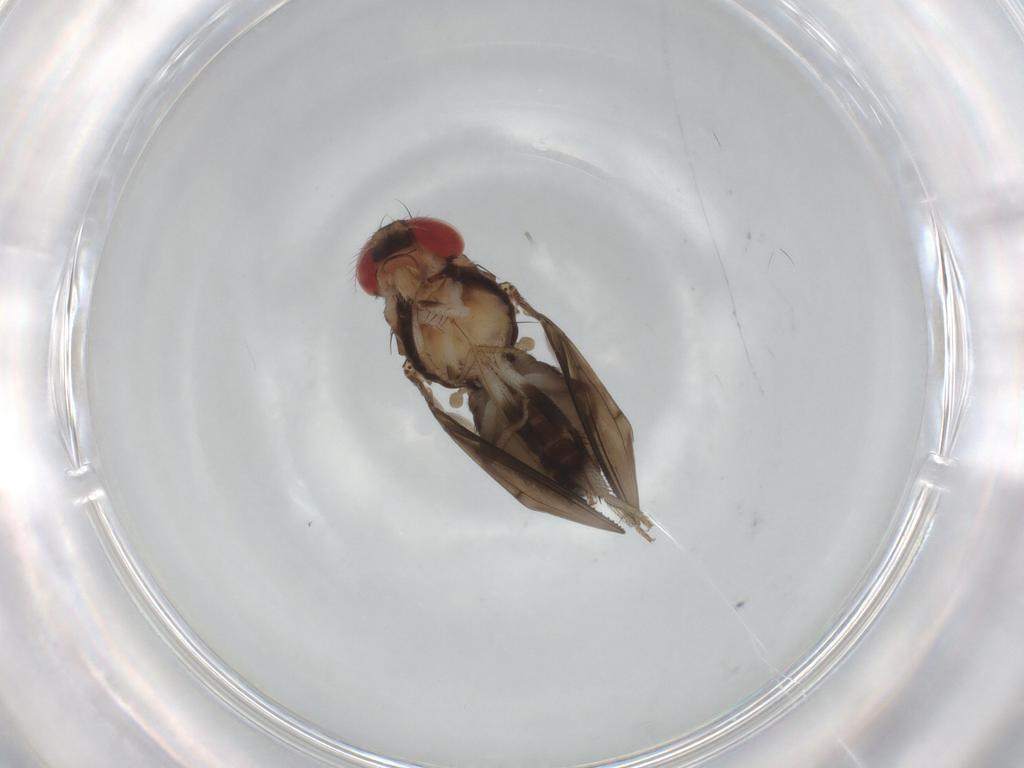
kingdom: Animalia
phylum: Arthropoda
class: Insecta
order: Diptera
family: Drosophilidae
